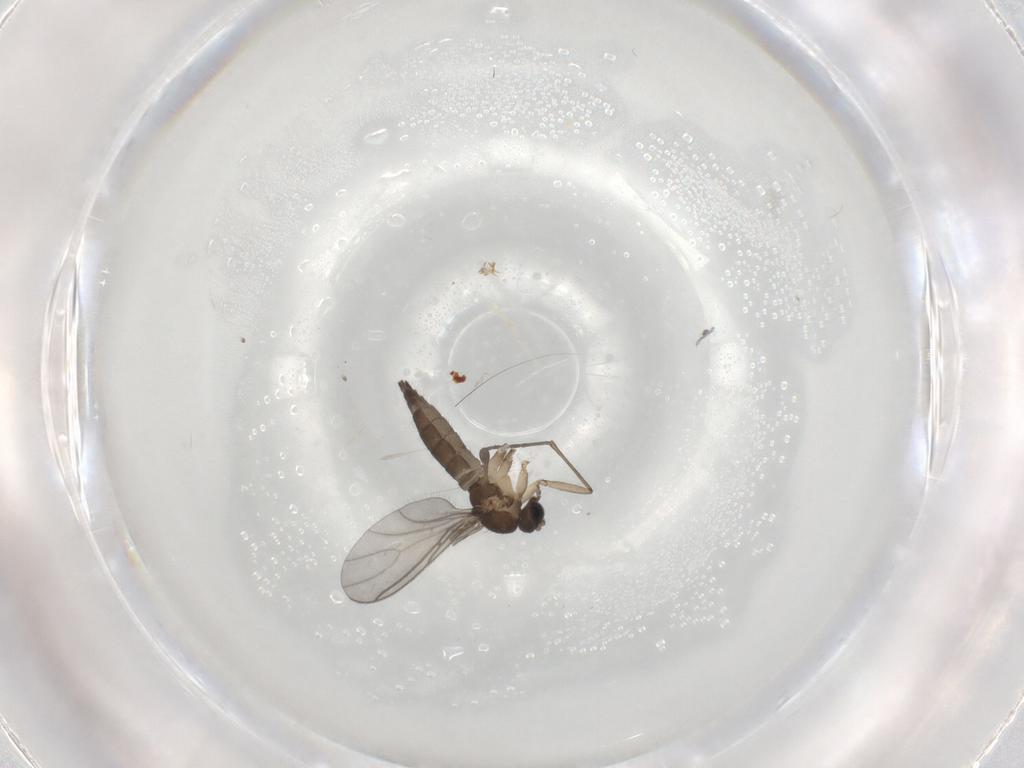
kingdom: Animalia
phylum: Arthropoda
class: Insecta
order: Diptera
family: Sciaridae
